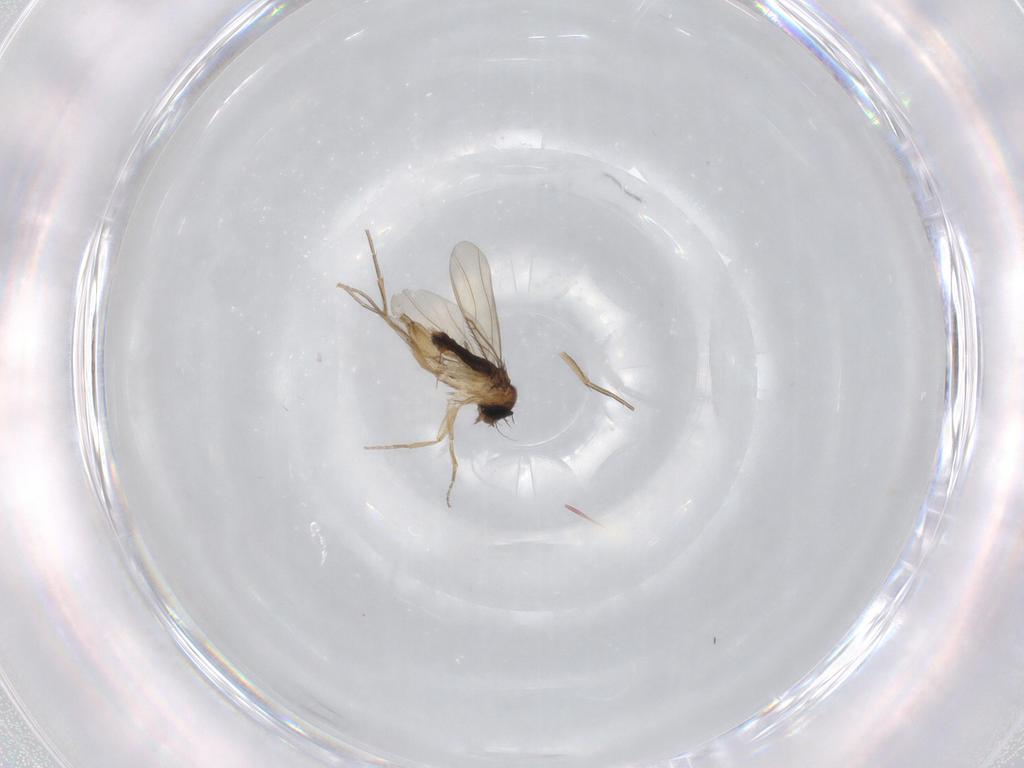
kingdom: Animalia
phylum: Arthropoda
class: Insecta
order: Diptera
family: Phoridae
